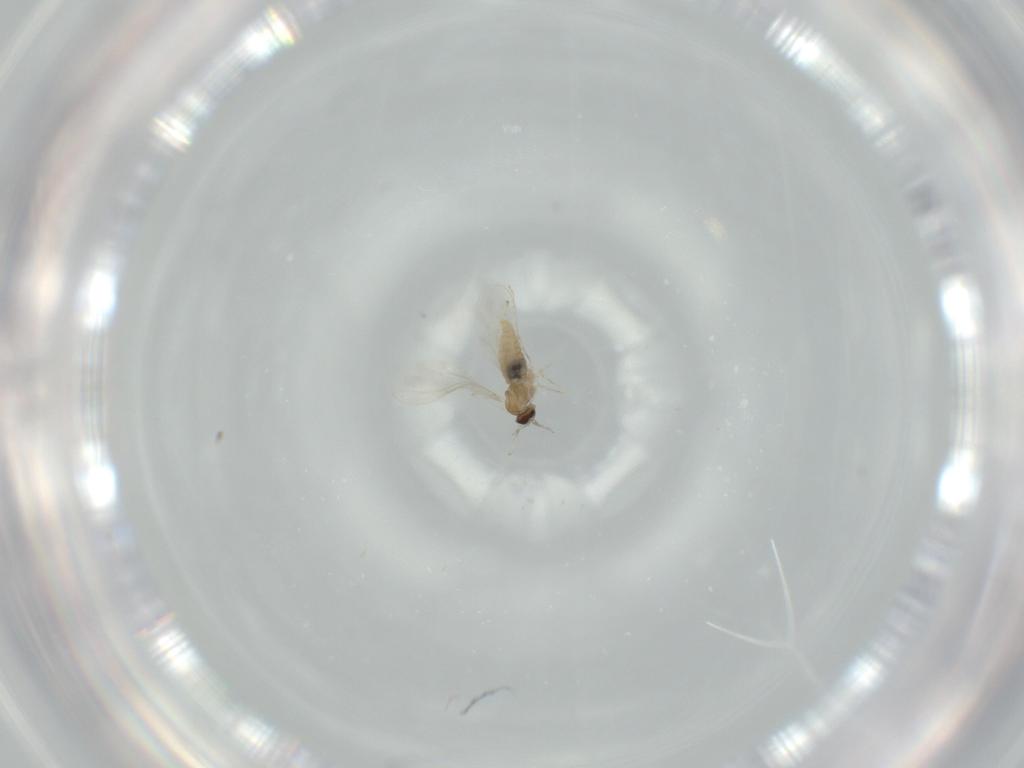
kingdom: Animalia
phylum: Arthropoda
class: Insecta
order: Diptera
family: Cecidomyiidae
